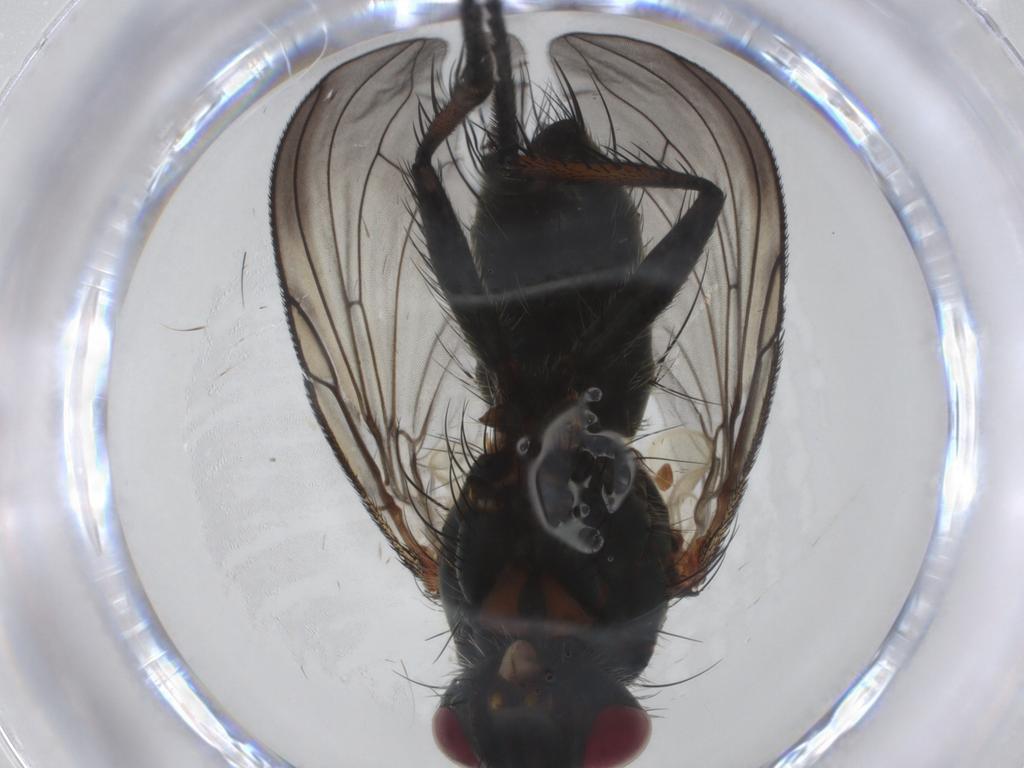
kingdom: Animalia
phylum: Arthropoda
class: Insecta
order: Diptera
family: Tachinidae
